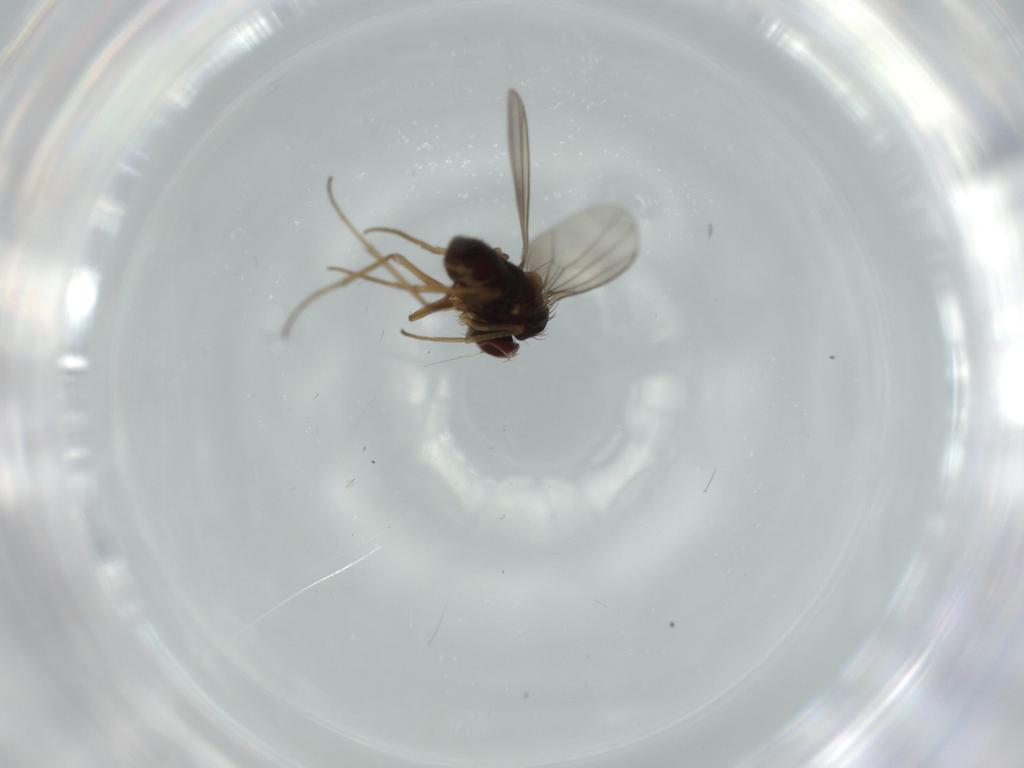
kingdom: Animalia
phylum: Arthropoda
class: Insecta
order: Diptera
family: Dolichopodidae
